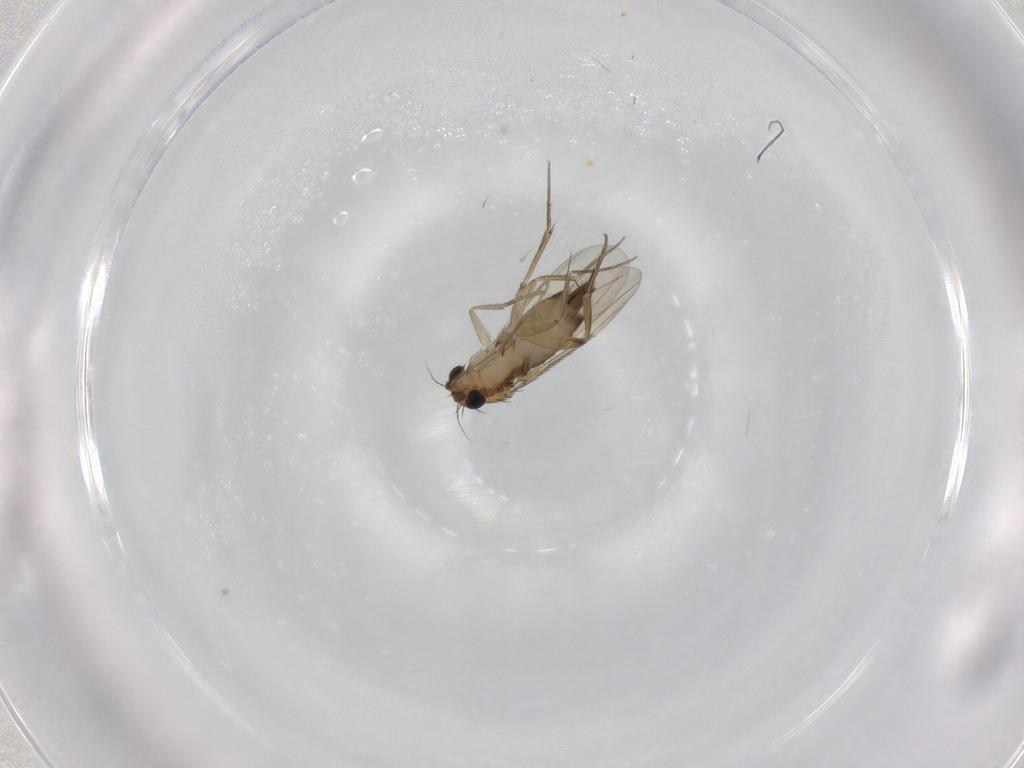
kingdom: Animalia
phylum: Arthropoda
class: Insecta
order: Diptera
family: Phoridae
